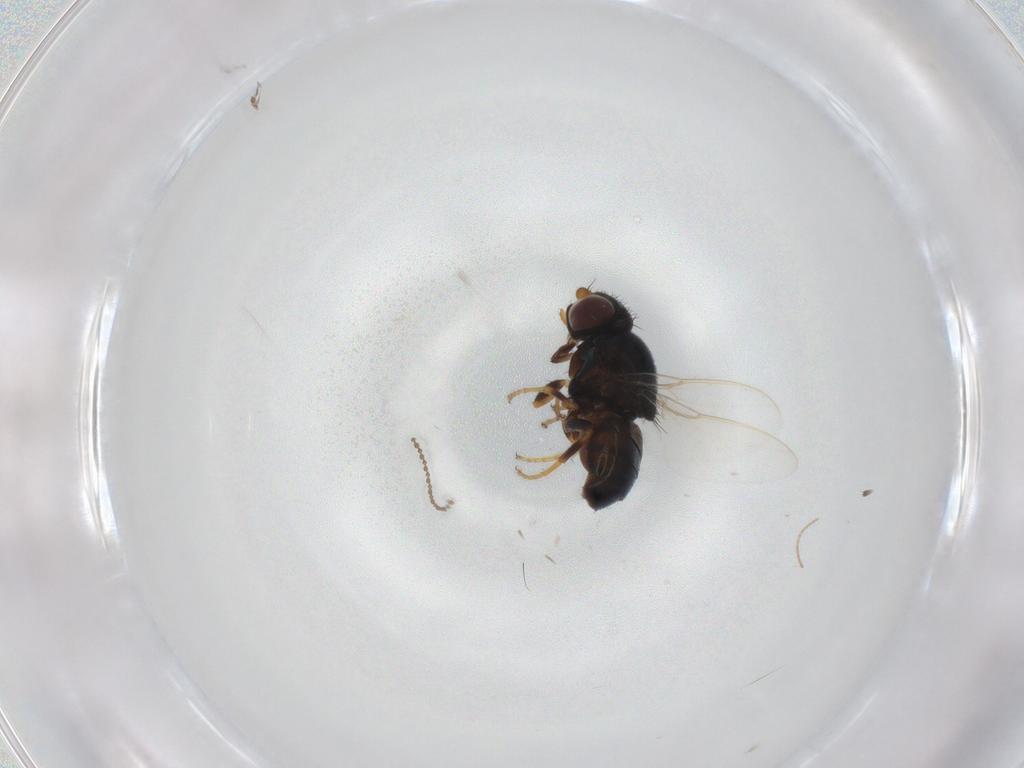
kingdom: Animalia
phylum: Arthropoda
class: Insecta
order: Diptera
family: Chloropidae
